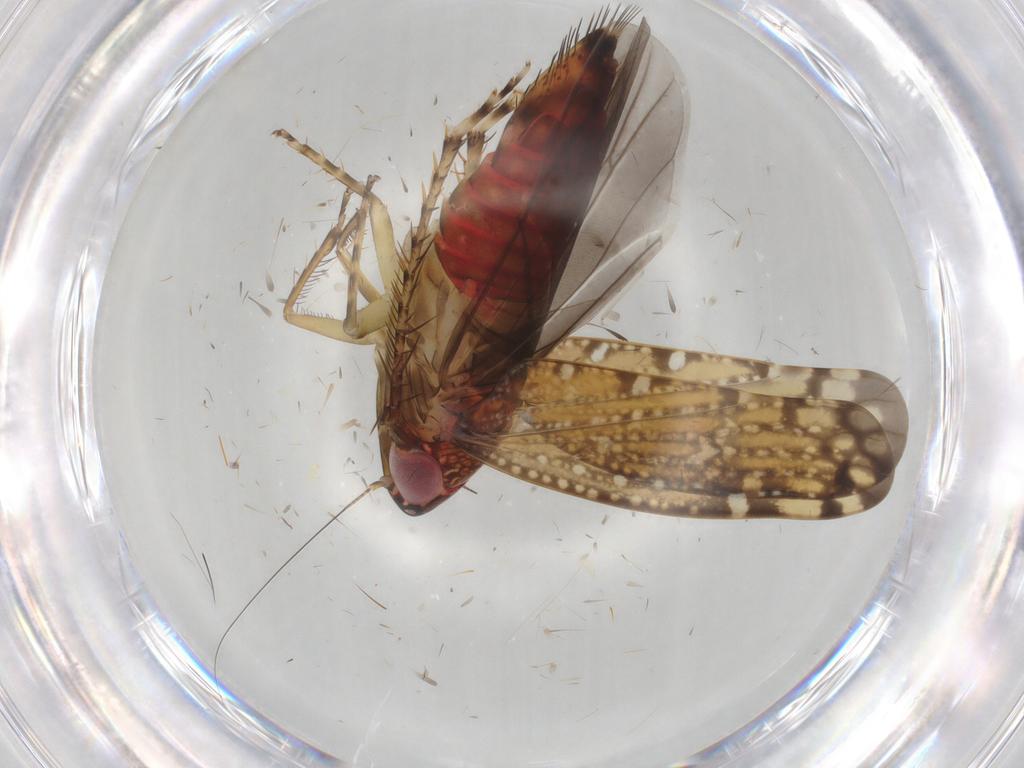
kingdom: Animalia
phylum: Arthropoda
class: Insecta
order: Hemiptera
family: Cicadellidae
